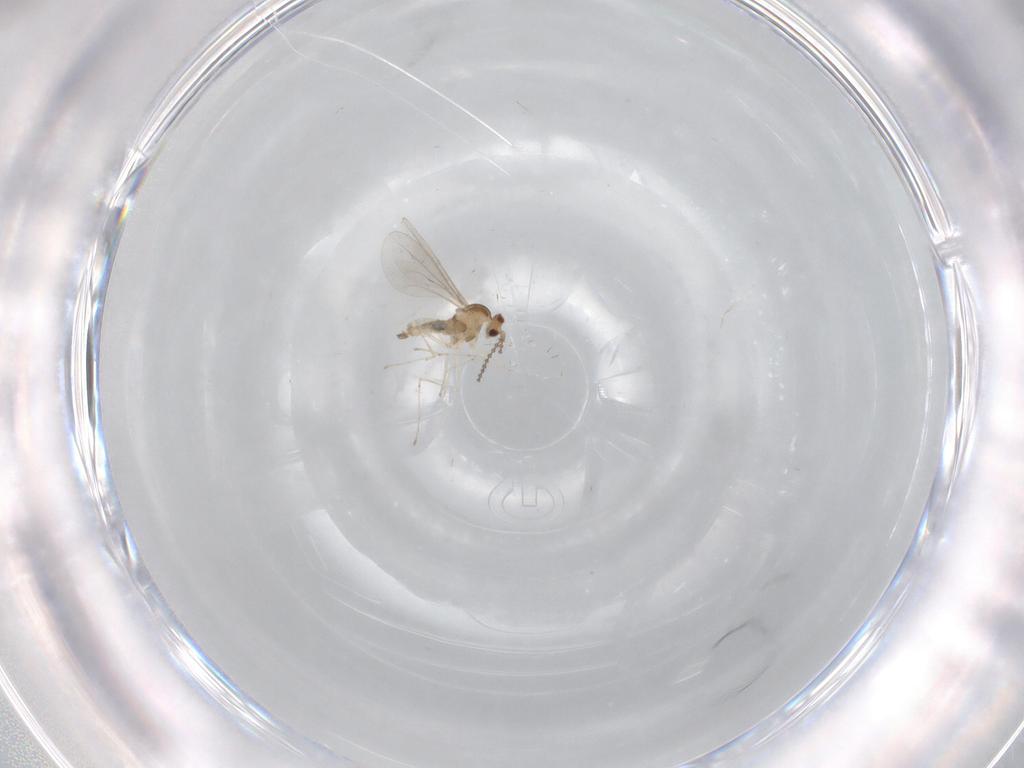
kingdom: Animalia
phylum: Arthropoda
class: Insecta
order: Diptera
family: Cecidomyiidae
